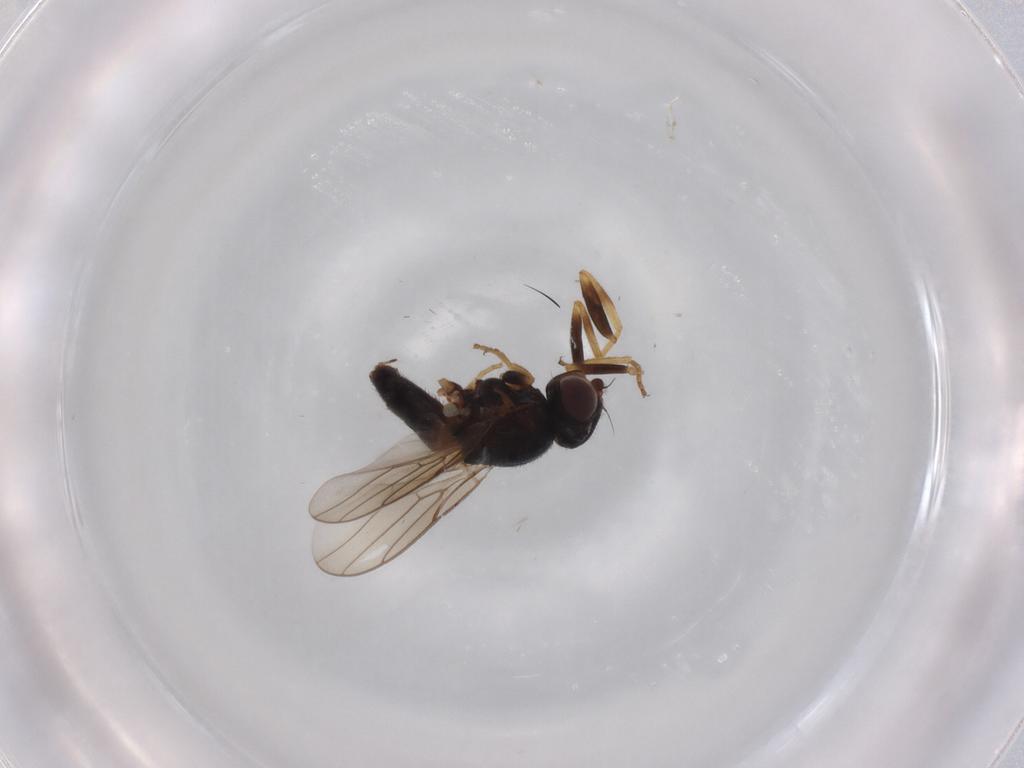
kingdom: Animalia
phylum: Arthropoda
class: Insecta
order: Diptera
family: Chloropidae
